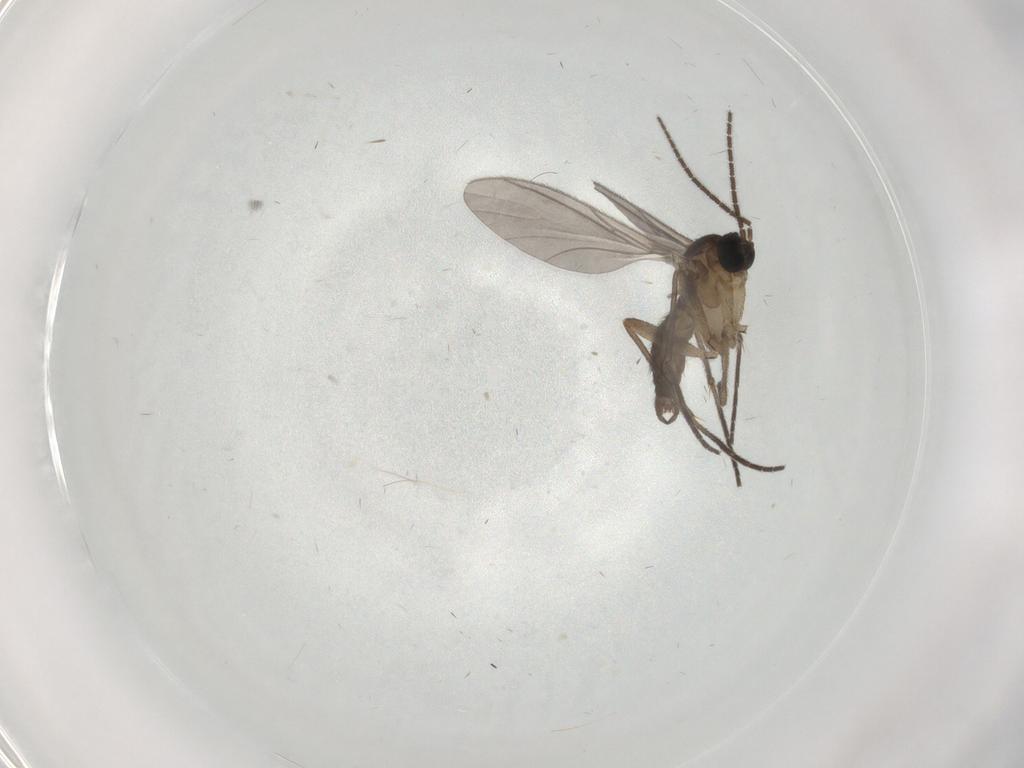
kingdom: Animalia
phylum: Arthropoda
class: Insecta
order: Diptera
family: Sciaridae
